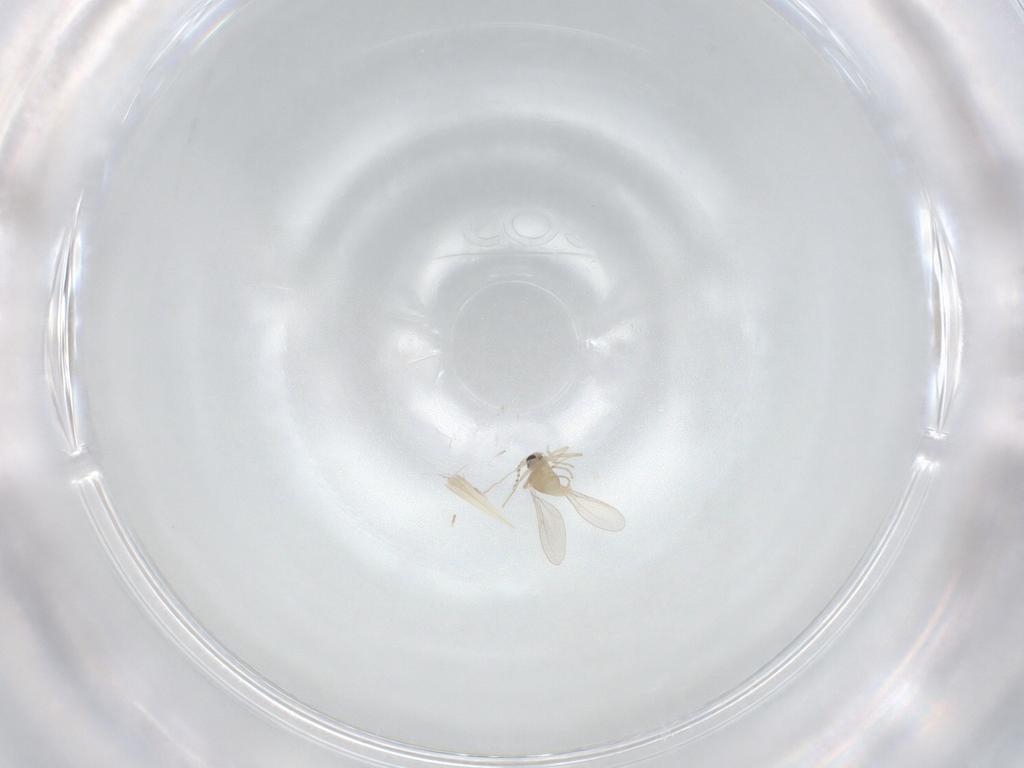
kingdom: Animalia
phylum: Arthropoda
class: Insecta
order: Diptera
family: Cecidomyiidae
